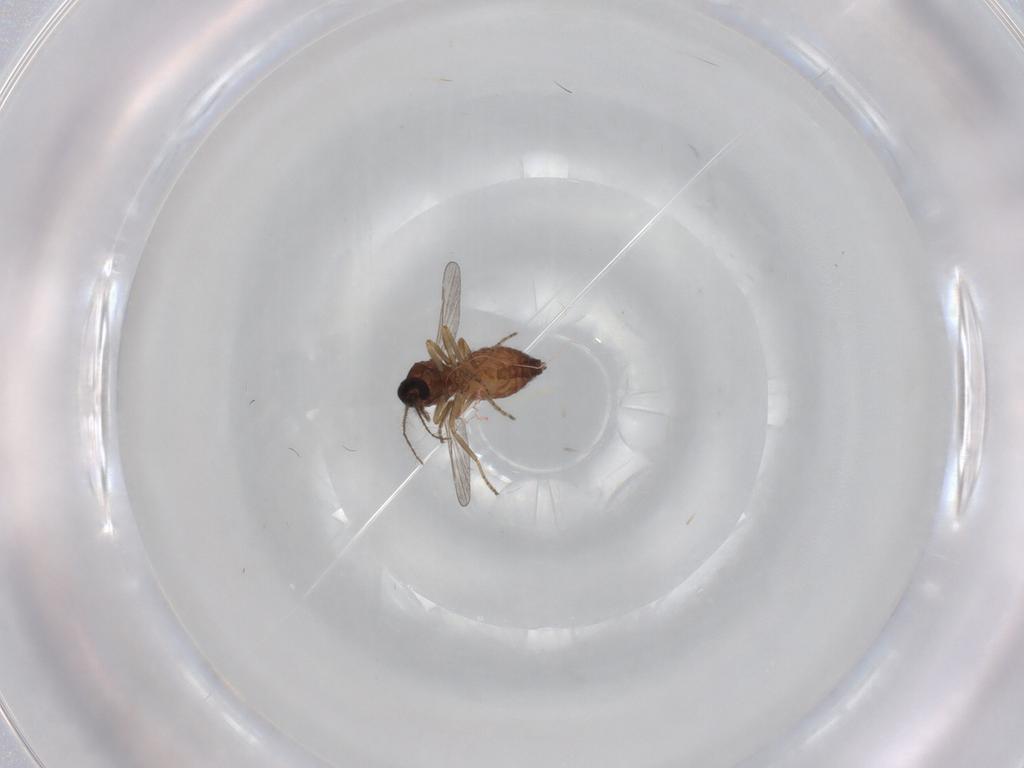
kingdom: Animalia
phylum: Arthropoda
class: Insecta
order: Diptera
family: Ceratopogonidae
